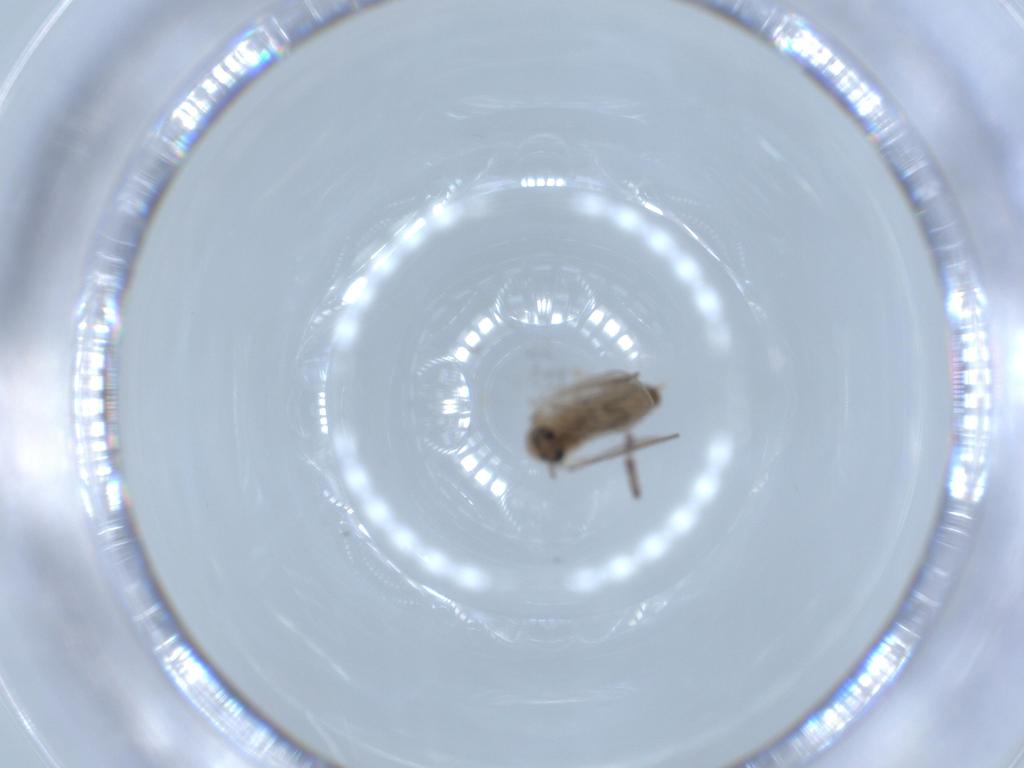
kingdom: Animalia
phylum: Arthropoda
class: Insecta
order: Diptera
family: Psychodidae
